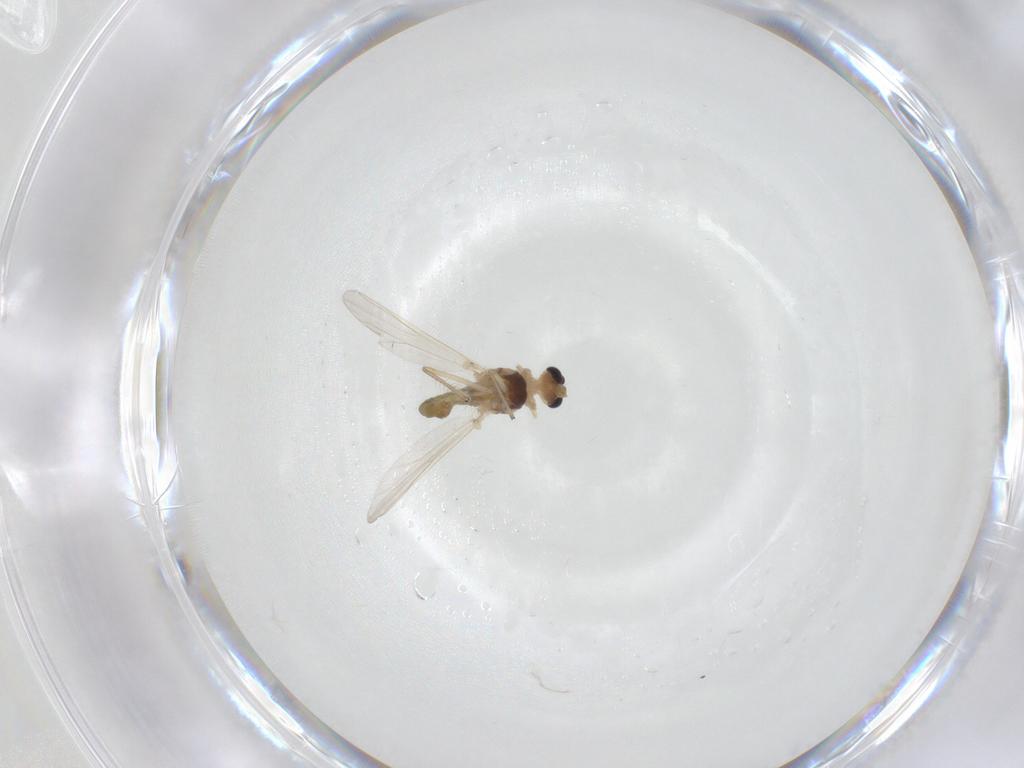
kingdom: Animalia
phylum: Arthropoda
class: Insecta
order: Diptera
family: Chironomidae
